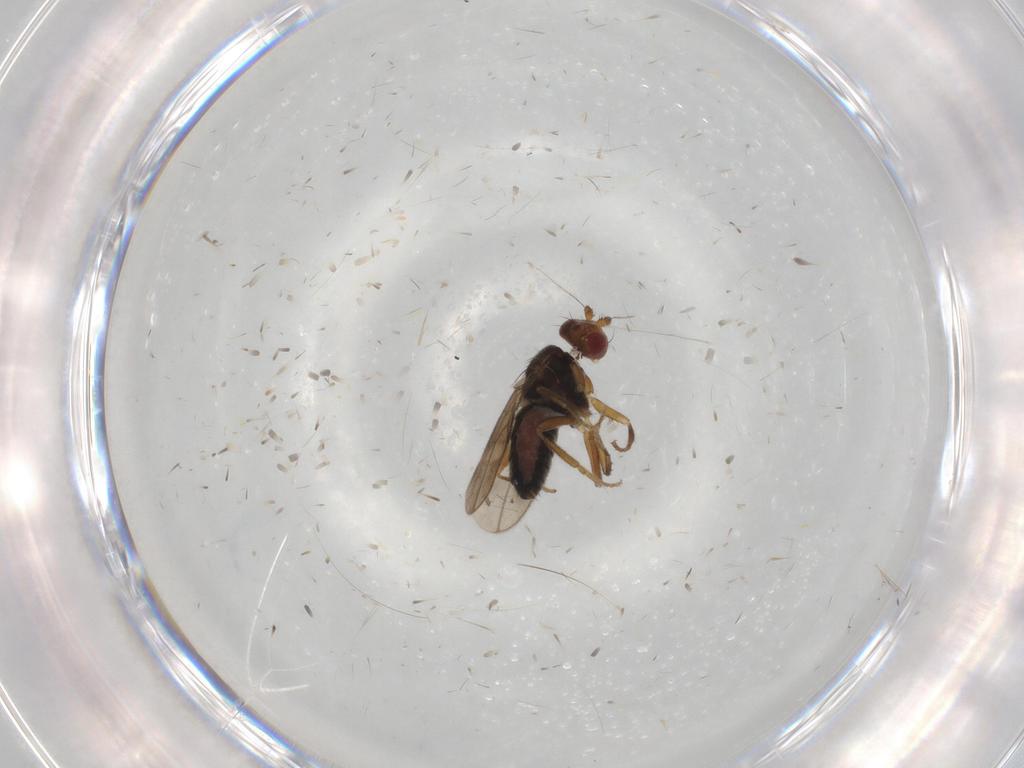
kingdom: Animalia
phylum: Arthropoda
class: Insecta
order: Diptera
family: Sphaeroceridae
